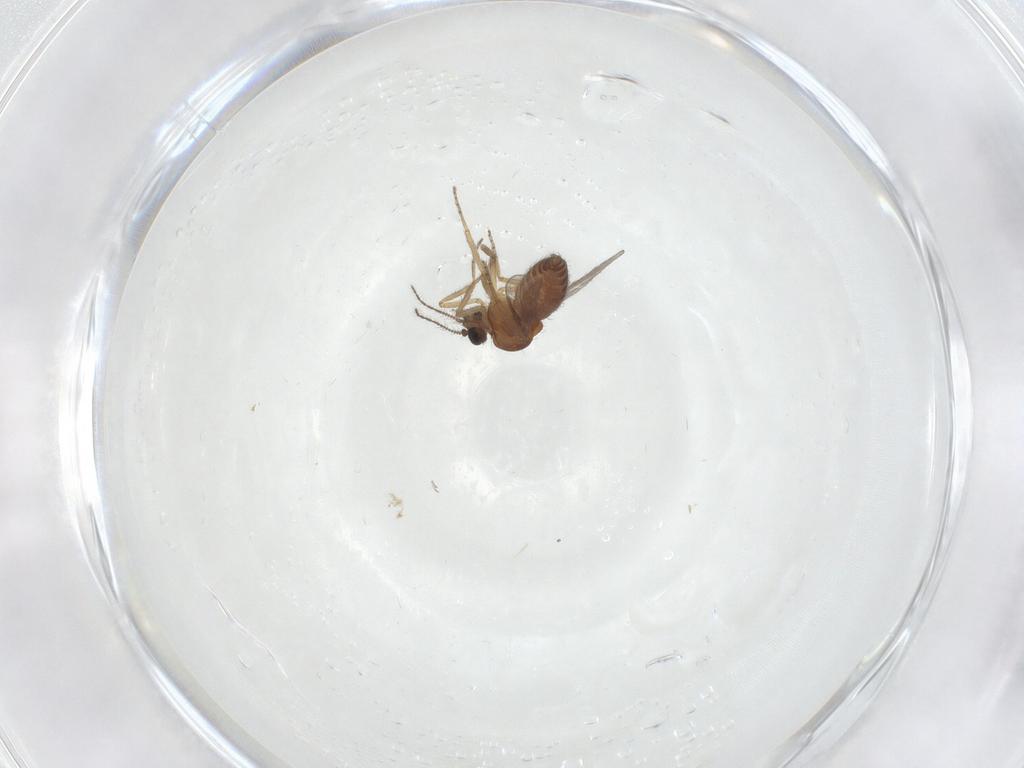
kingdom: Animalia
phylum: Arthropoda
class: Insecta
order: Diptera
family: Ceratopogonidae
